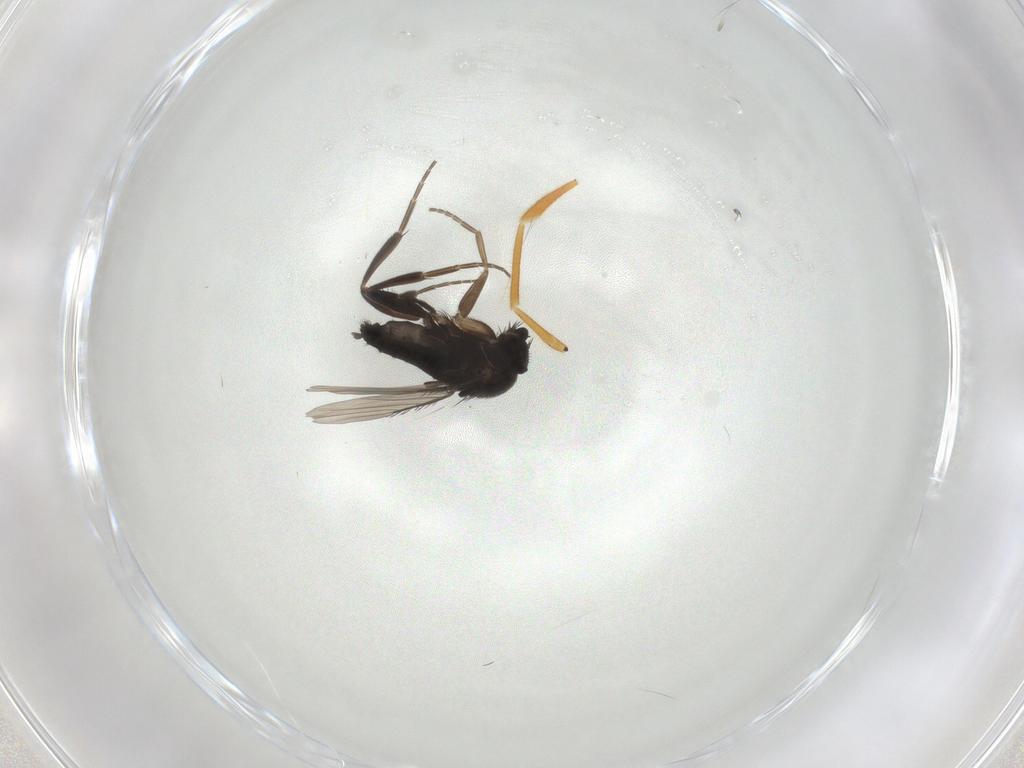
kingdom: Animalia
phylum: Arthropoda
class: Insecta
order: Diptera
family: Phoridae
